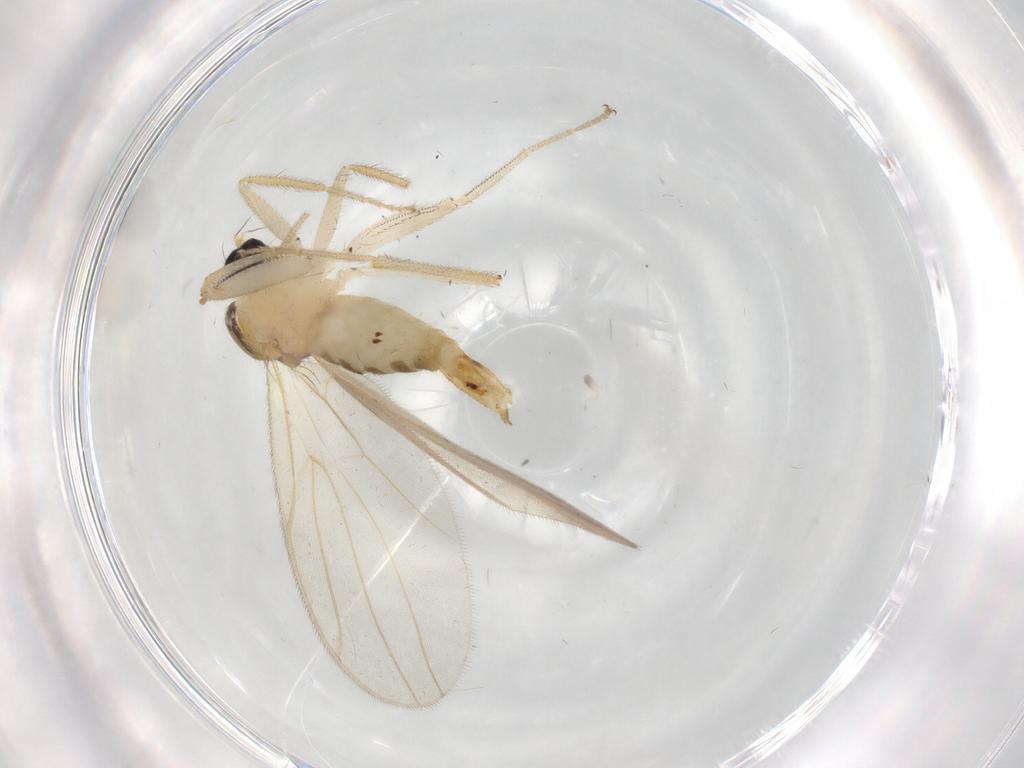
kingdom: Animalia
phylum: Arthropoda
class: Insecta
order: Diptera
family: Hybotidae
